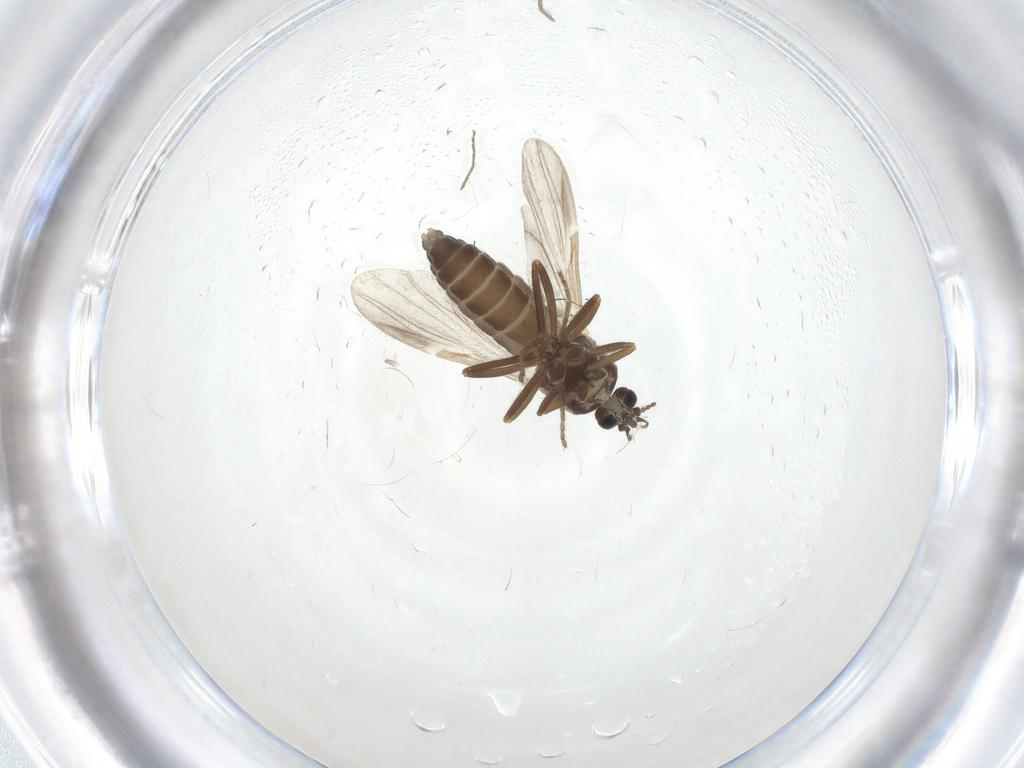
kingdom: Animalia
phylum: Arthropoda
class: Insecta
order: Diptera
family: Ceratopogonidae
